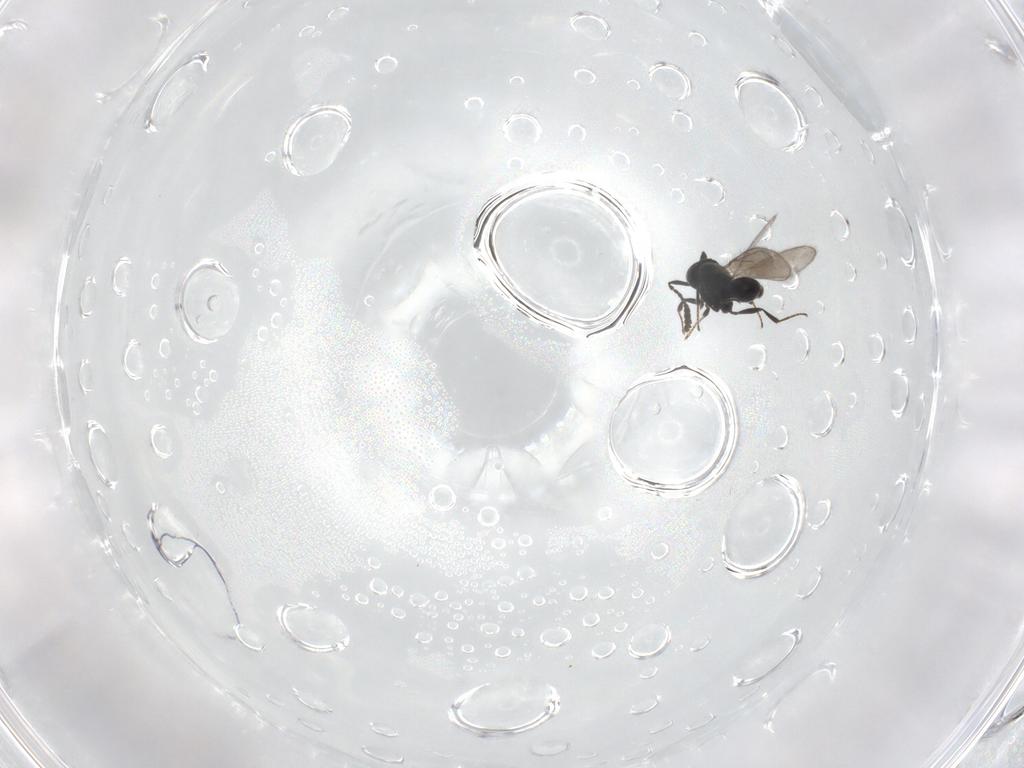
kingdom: Animalia
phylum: Arthropoda
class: Insecta
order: Hymenoptera
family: Scelionidae
